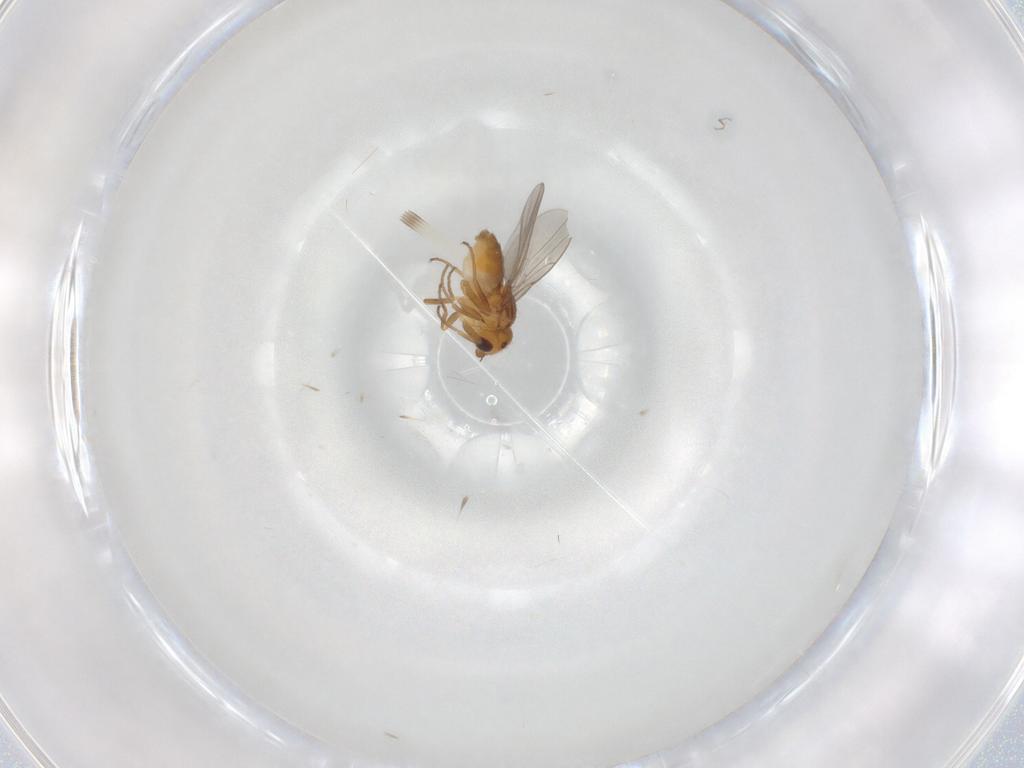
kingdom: Animalia
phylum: Arthropoda
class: Insecta
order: Diptera
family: Chloropidae
